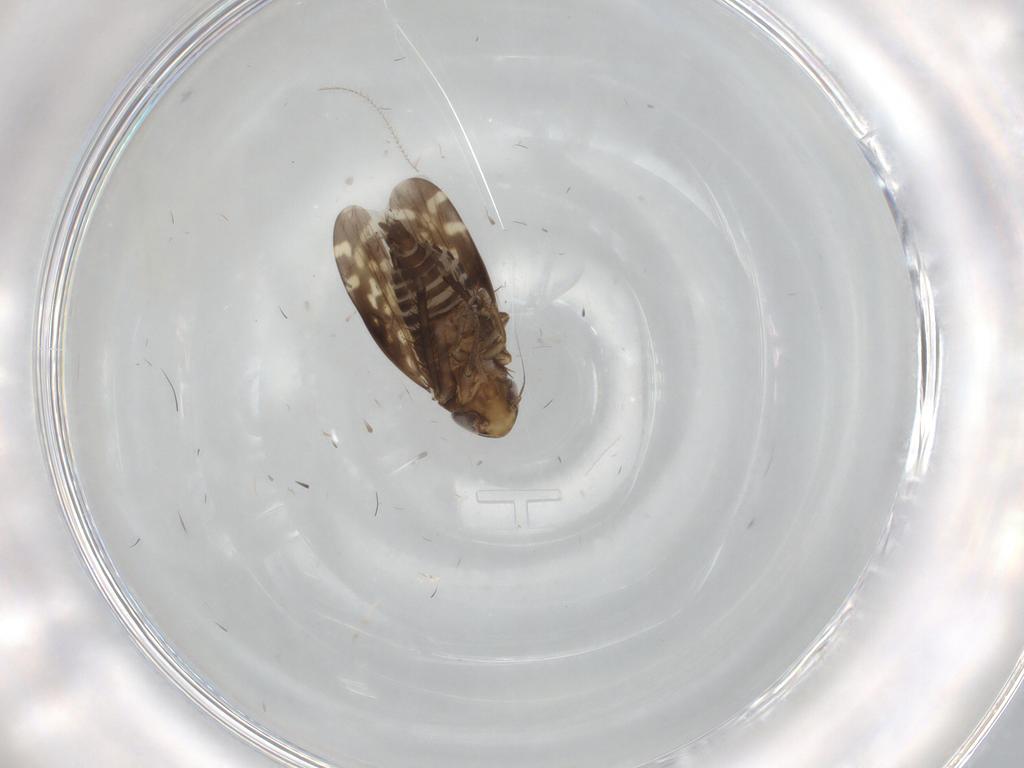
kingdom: Animalia
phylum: Arthropoda
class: Insecta
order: Hemiptera
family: Cicadellidae
